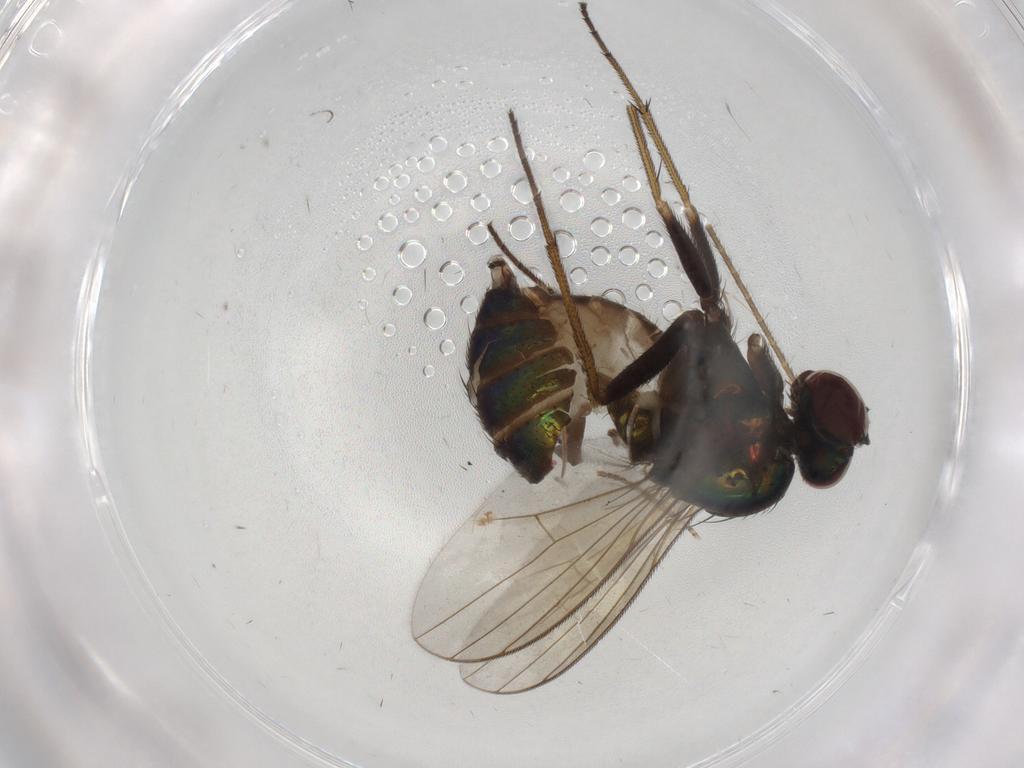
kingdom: Animalia
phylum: Arthropoda
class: Insecta
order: Diptera
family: Dolichopodidae
